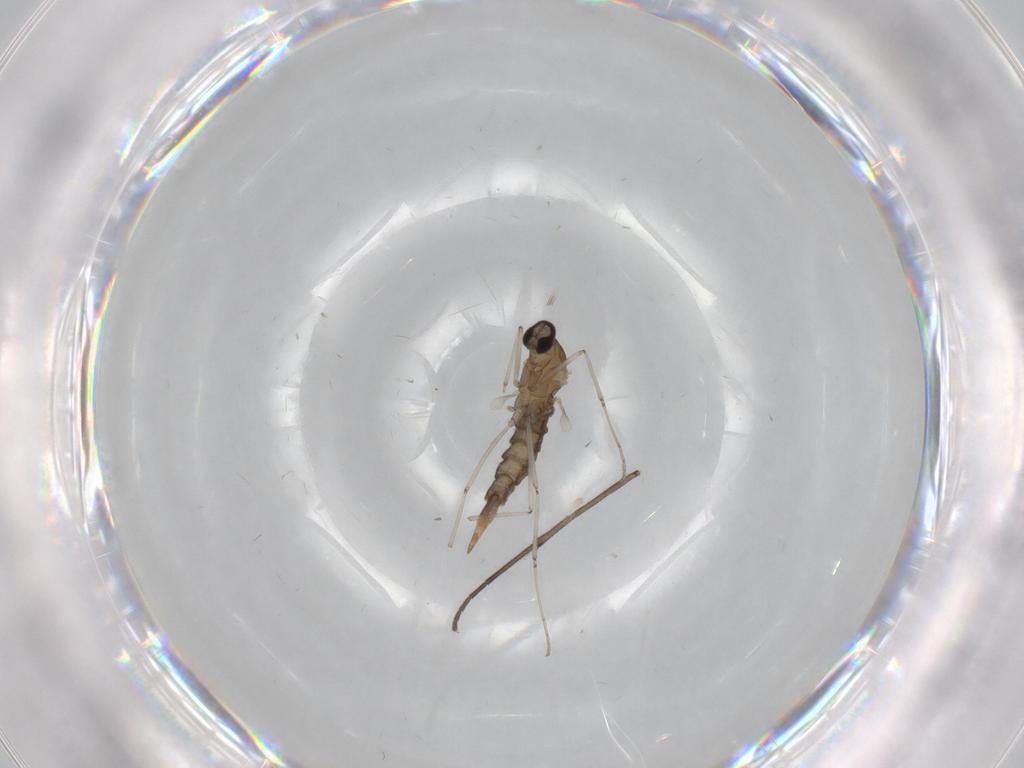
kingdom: Animalia
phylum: Arthropoda
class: Insecta
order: Diptera
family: Cecidomyiidae
